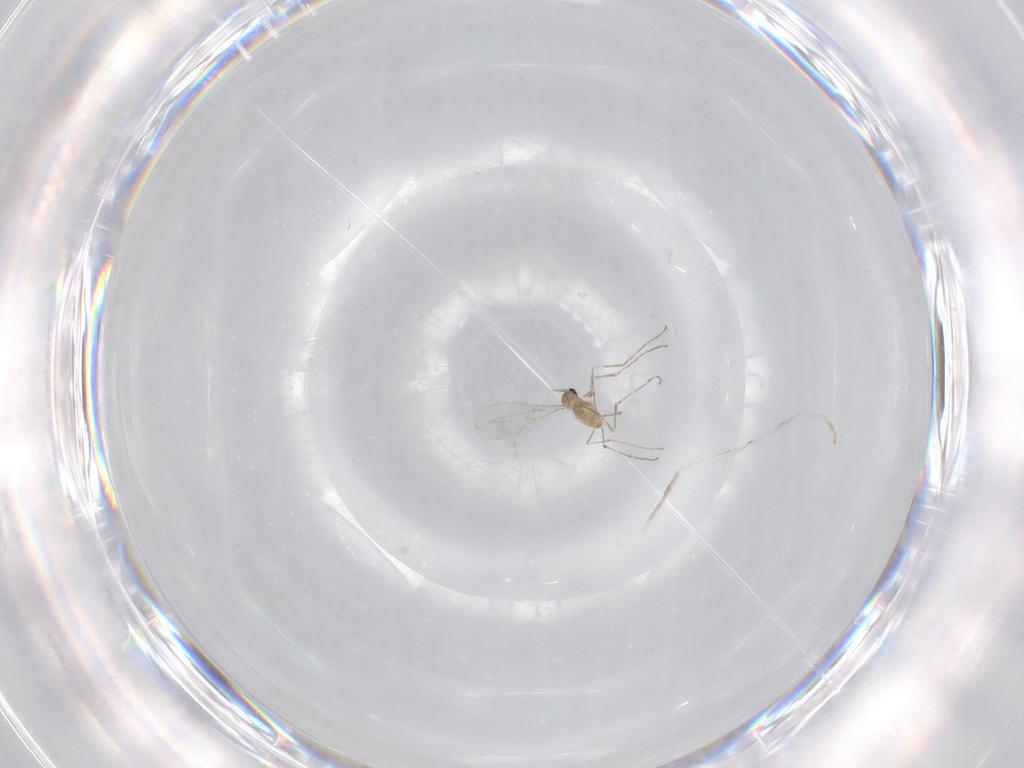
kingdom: Animalia
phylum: Arthropoda
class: Insecta
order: Diptera
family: Cecidomyiidae
